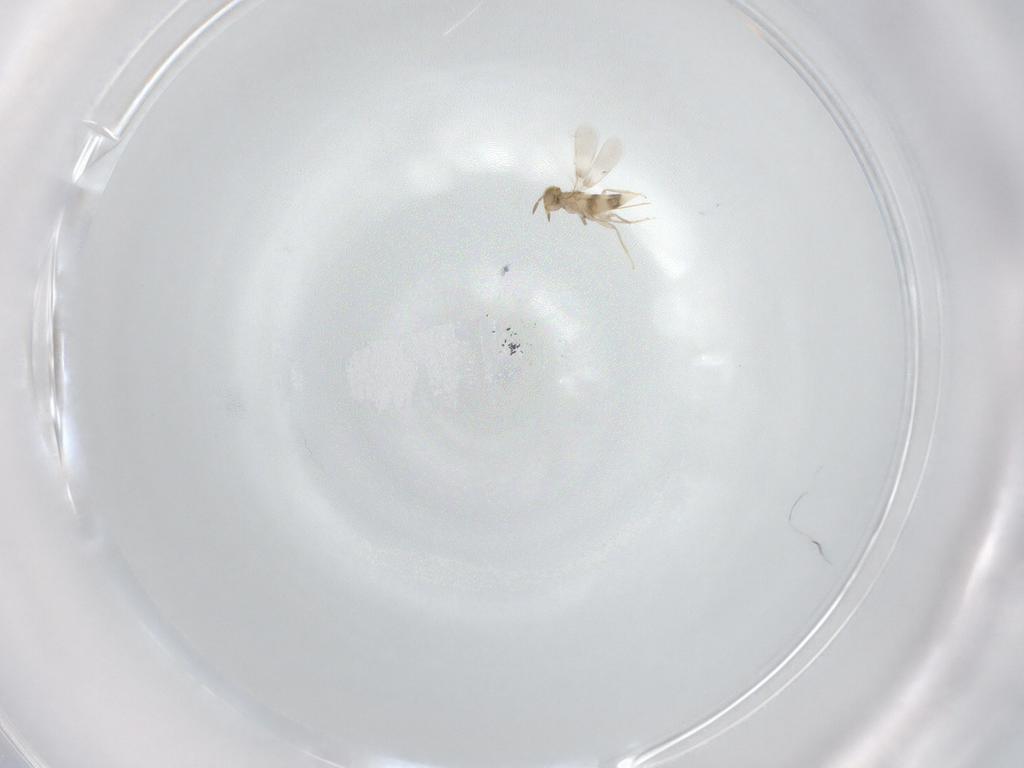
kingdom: Animalia
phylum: Arthropoda
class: Insecta
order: Hymenoptera
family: Aphelinidae
